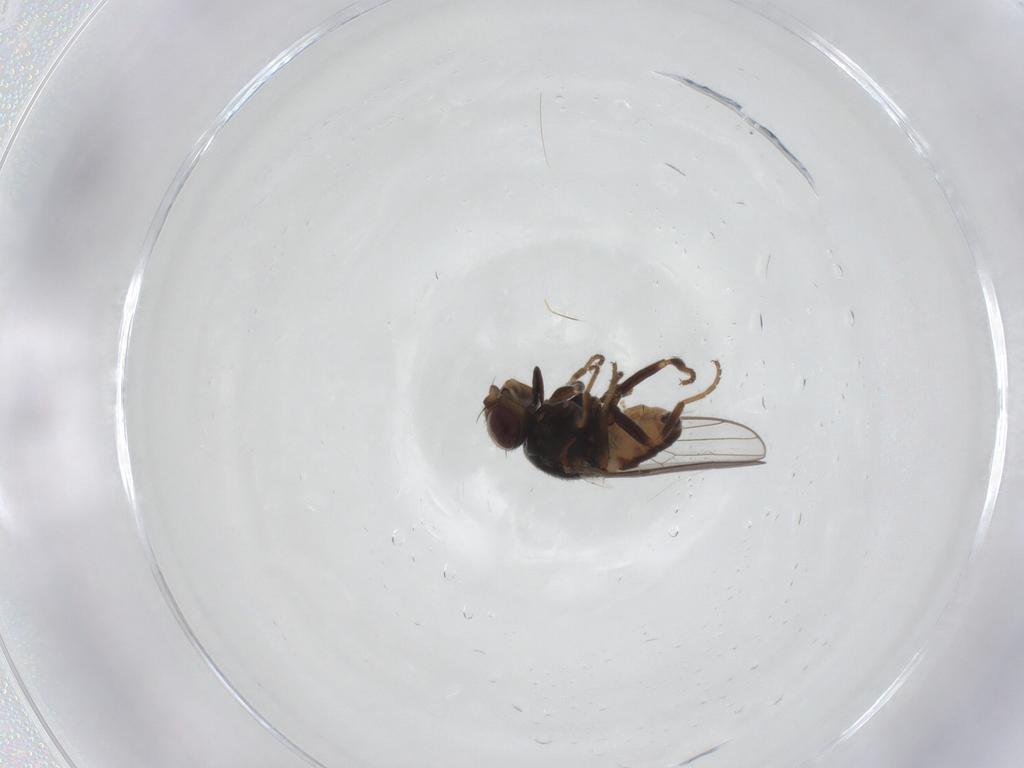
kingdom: Animalia
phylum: Arthropoda
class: Insecta
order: Diptera
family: Chloropidae
